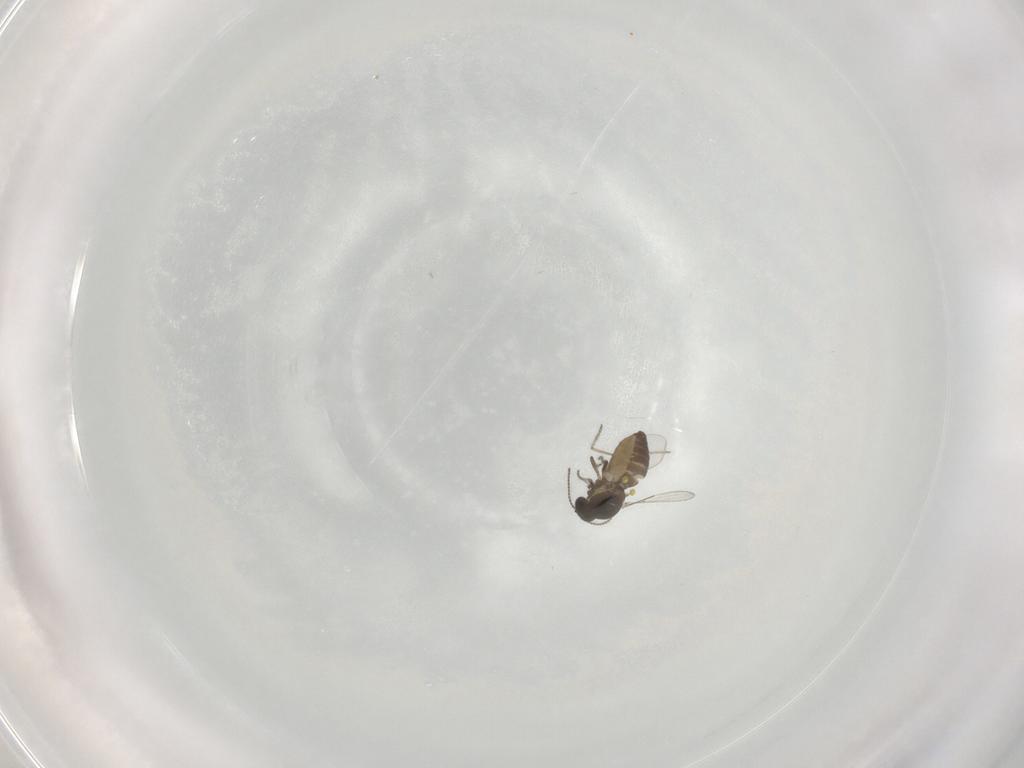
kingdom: Animalia
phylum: Arthropoda
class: Insecta
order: Diptera
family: Ceratopogonidae
